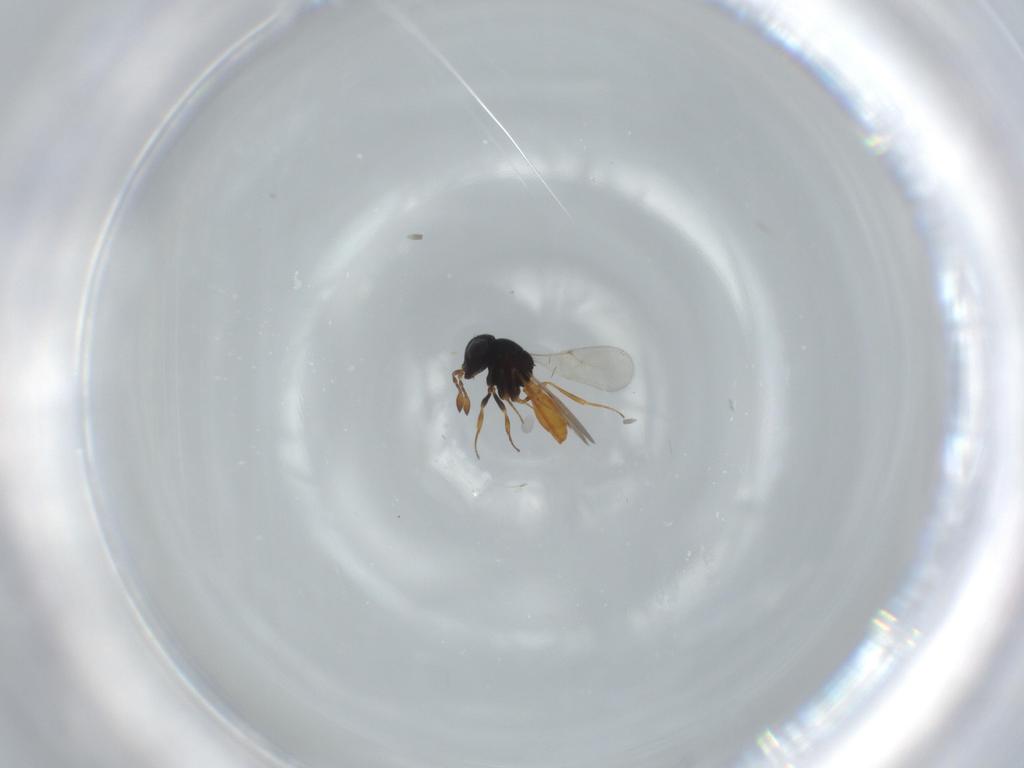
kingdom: Animalia
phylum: Arthropoda
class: Insecta
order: Hymenoptera
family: Scelionidae
